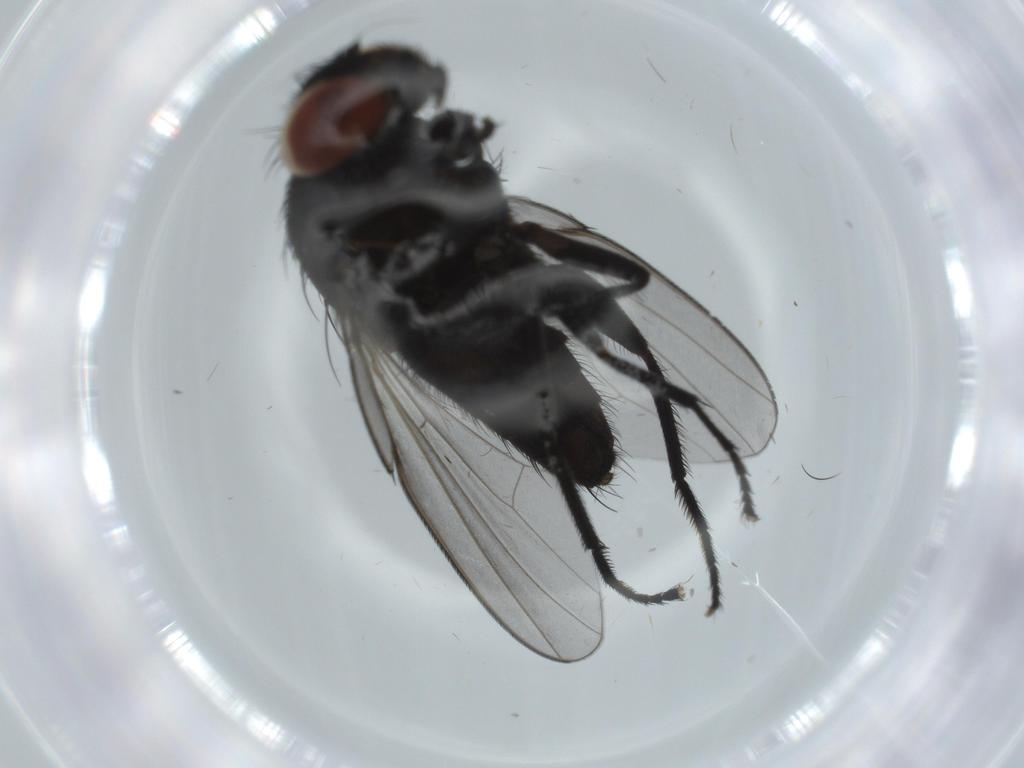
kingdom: Animalia
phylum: Arthropoda
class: Insecta
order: Diptera
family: Milichiidae
